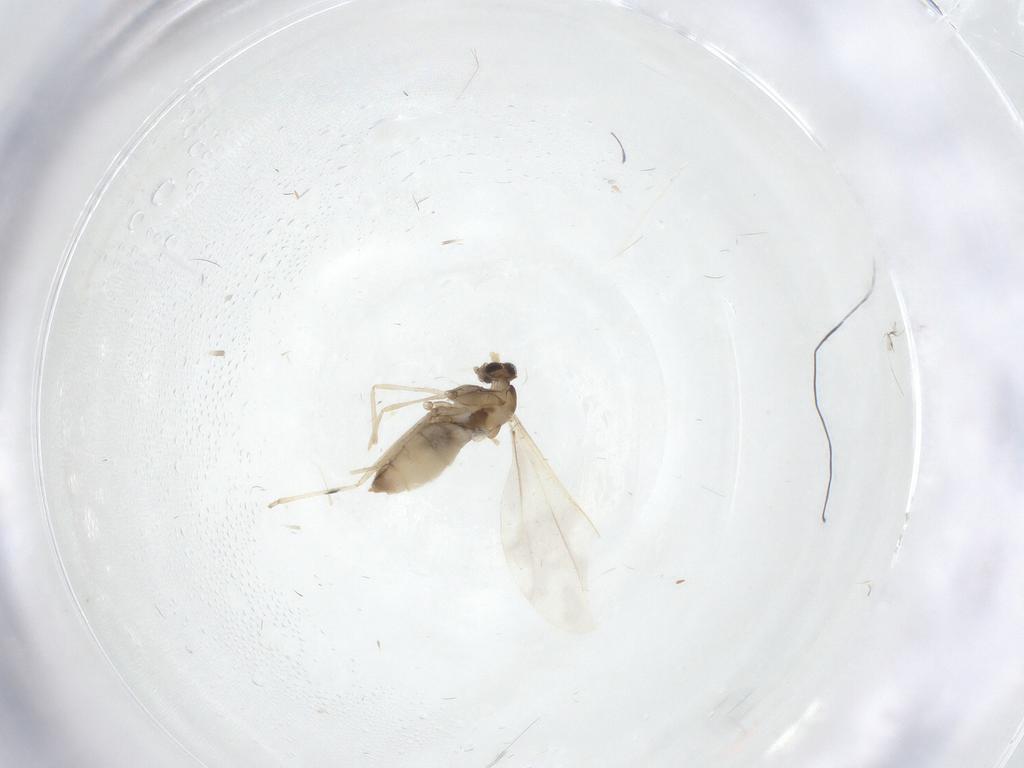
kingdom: Animalia
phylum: Arthropoda
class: Insecta
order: Diptera
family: Cecidomyiidae
